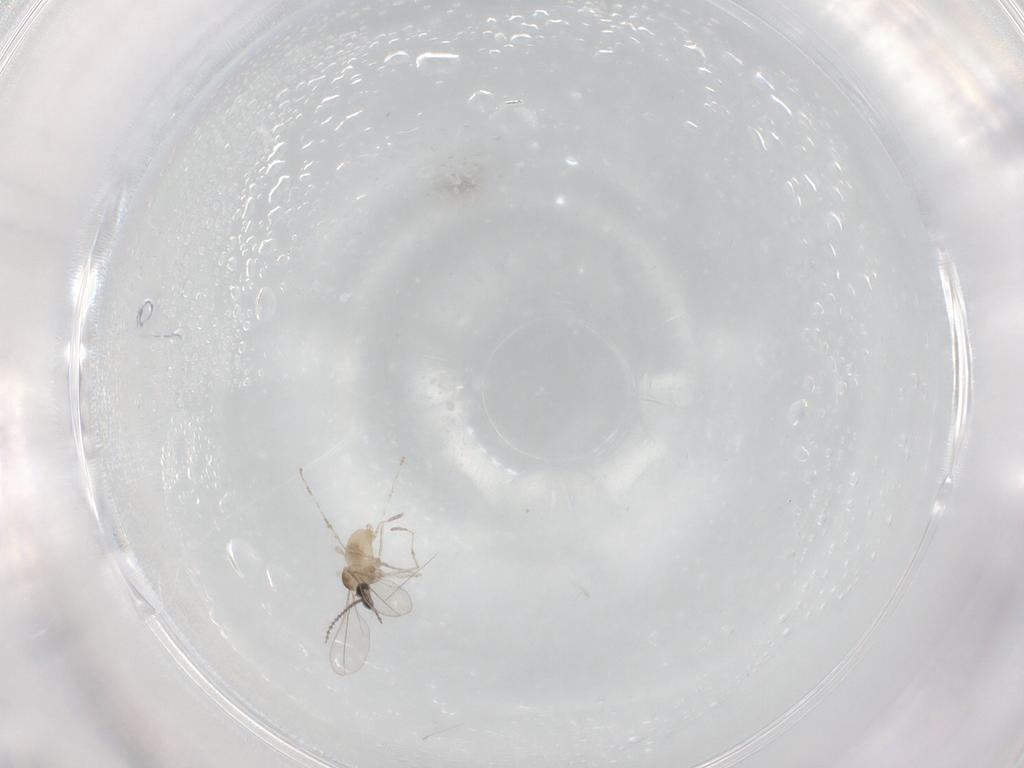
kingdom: Animalia
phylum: Arthropoda
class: Insecta
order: Diptera
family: Cecidomyiidae
